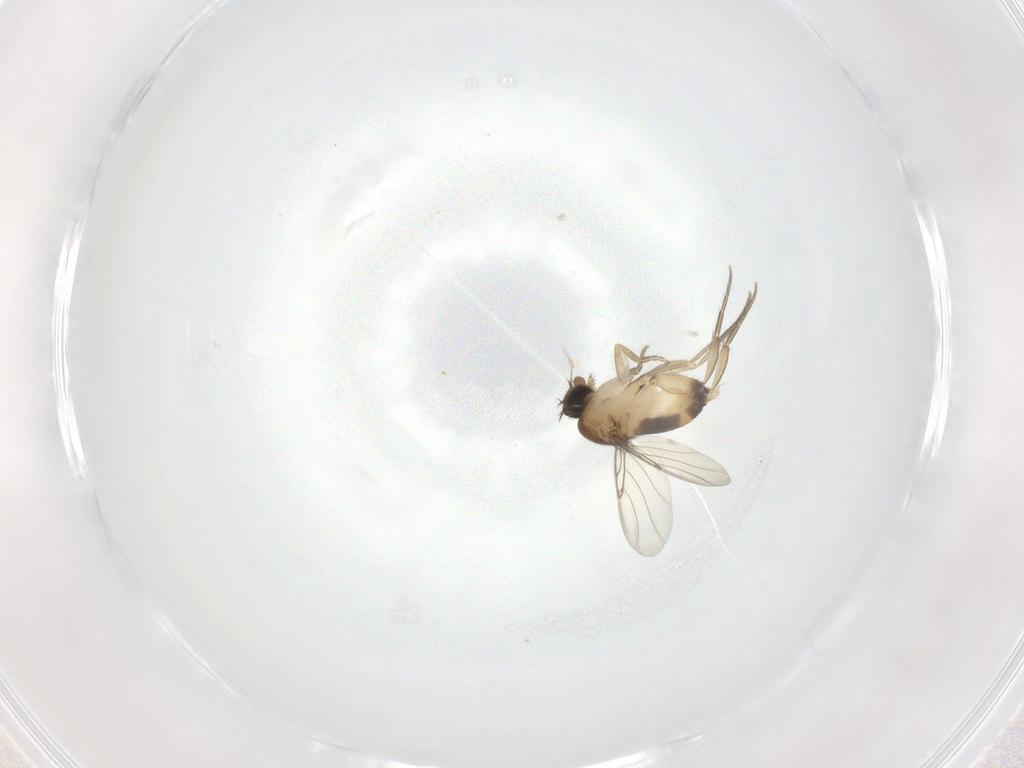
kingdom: Animalia
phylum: Arthropoda
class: Insecta
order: Diptera
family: Phoridae
